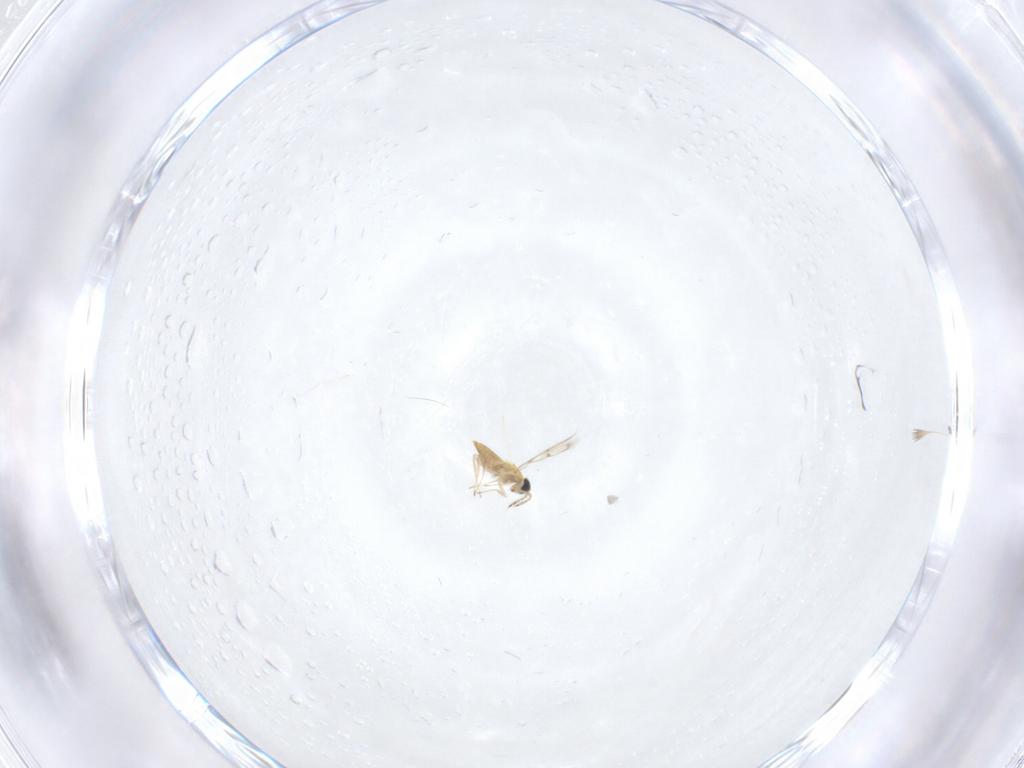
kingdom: Animalia
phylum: Arthropoda
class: Insecta
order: Hymenoptera
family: Trichogrammatidae
